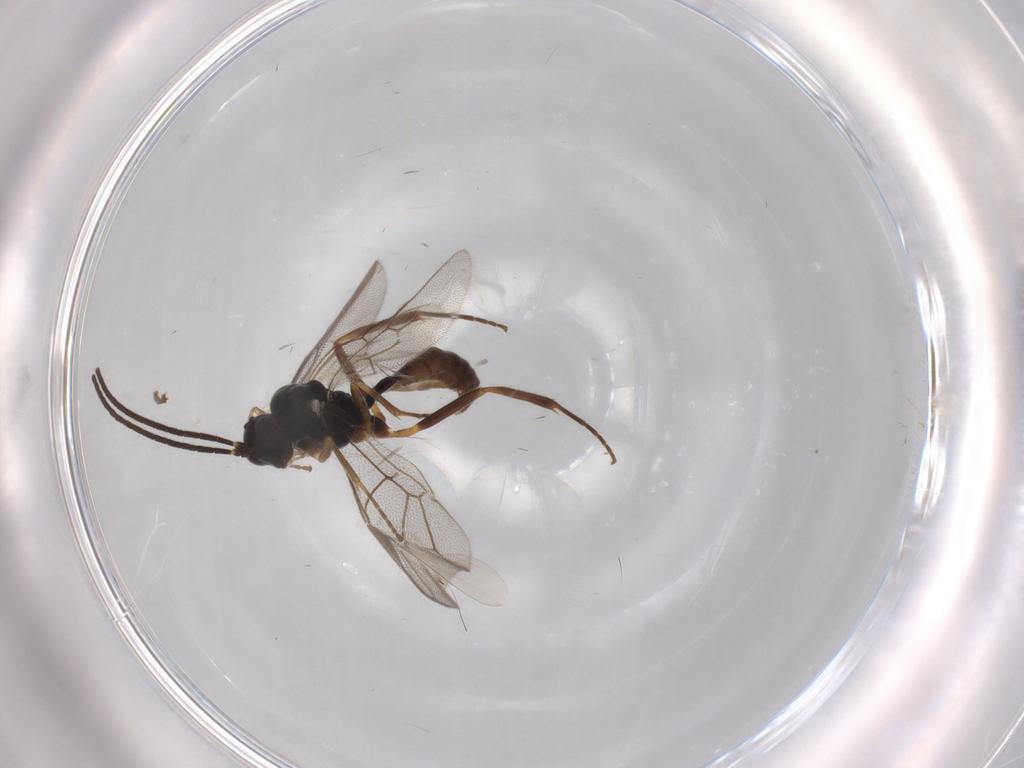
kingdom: Animalia
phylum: Arthropoda
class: Insecta
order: Hymenoptera
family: Ichneumonidae
